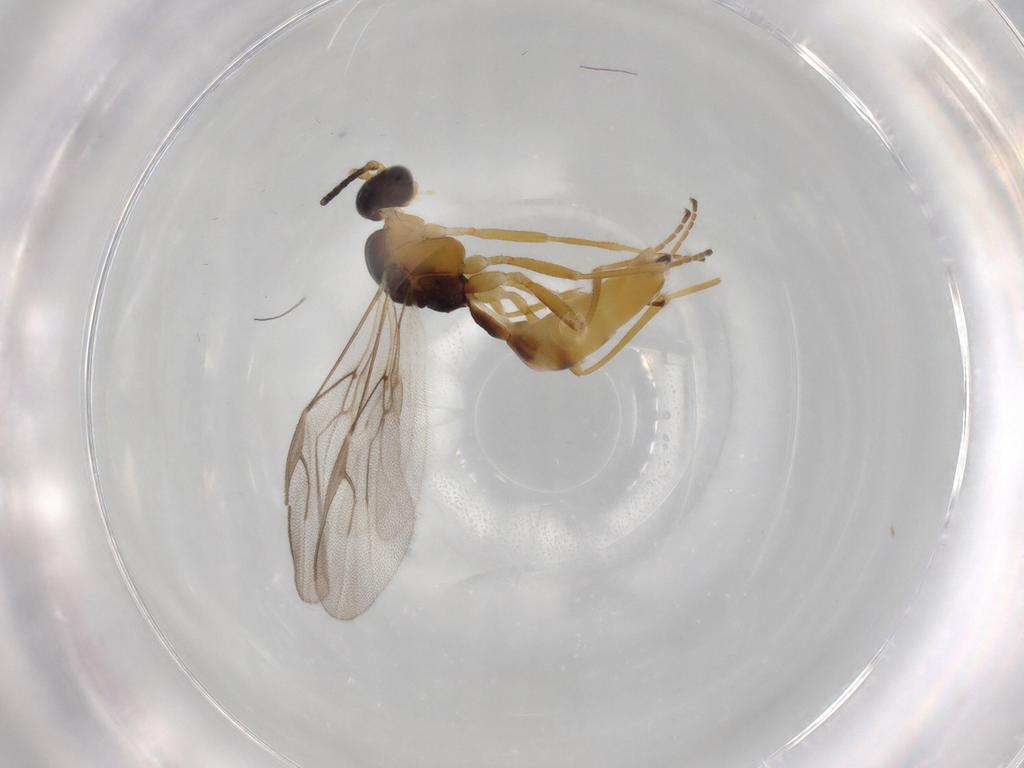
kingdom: Animalia
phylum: Arthropoda
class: Insecta
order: Hymenoptera
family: Braconidae
